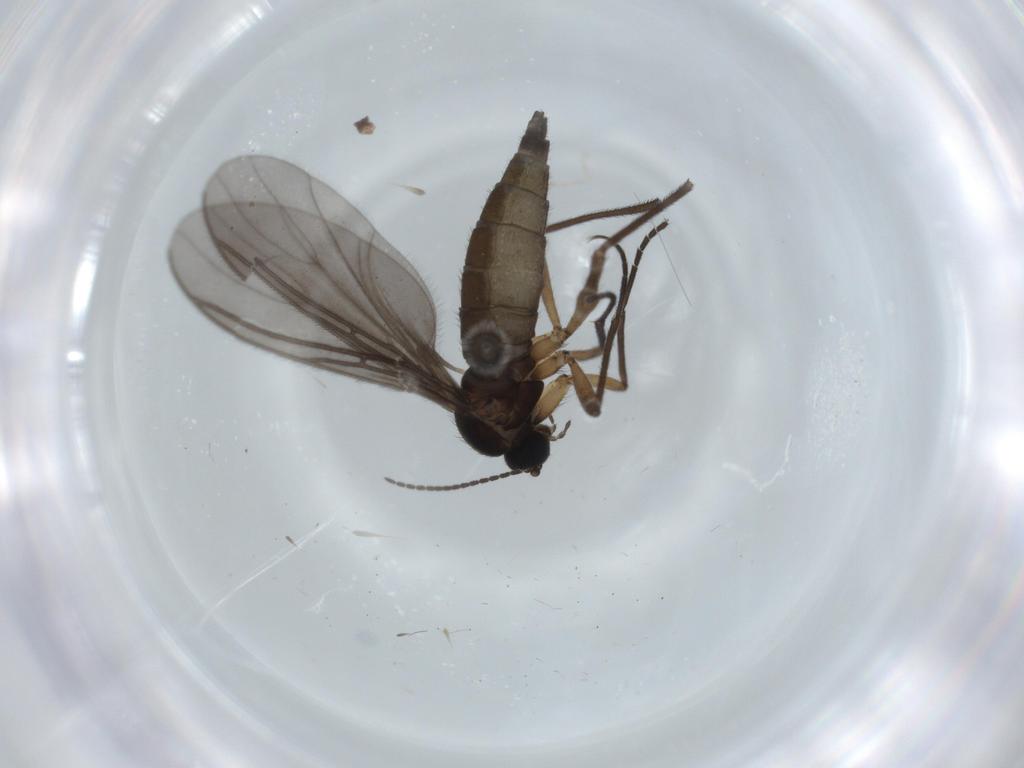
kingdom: Animalia
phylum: Arthropoda
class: Insecta
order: Diptera
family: Sciaridae
